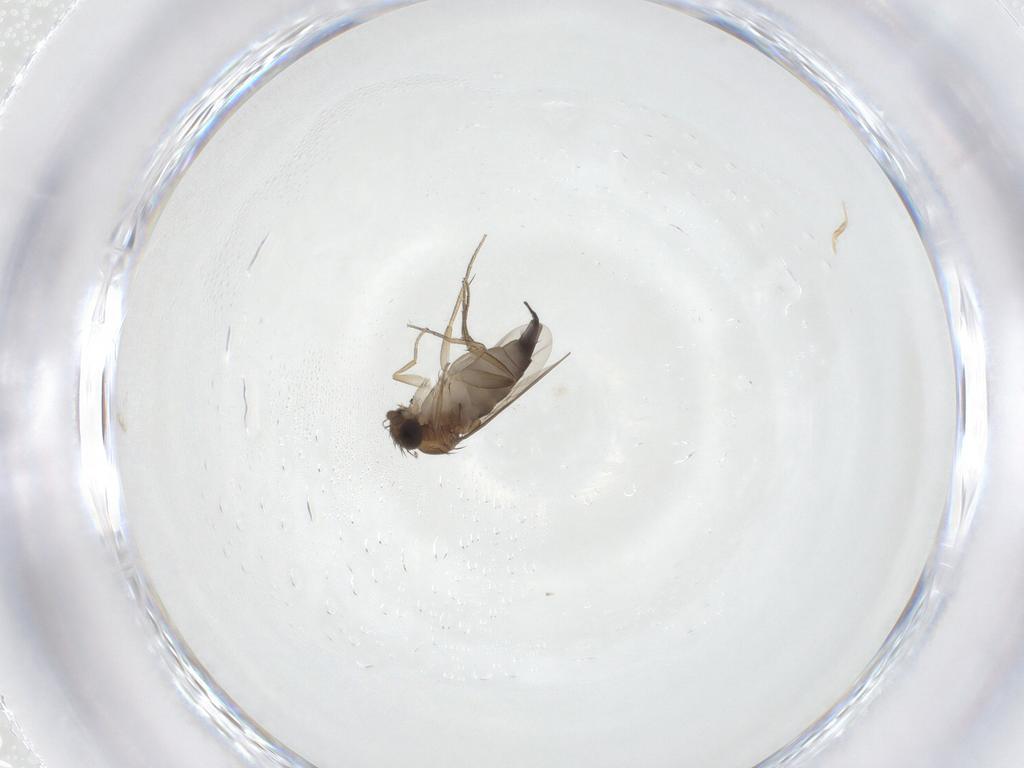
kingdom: Animalia
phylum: Arthropoda
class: Insecta
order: Diptera
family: Phoridae
